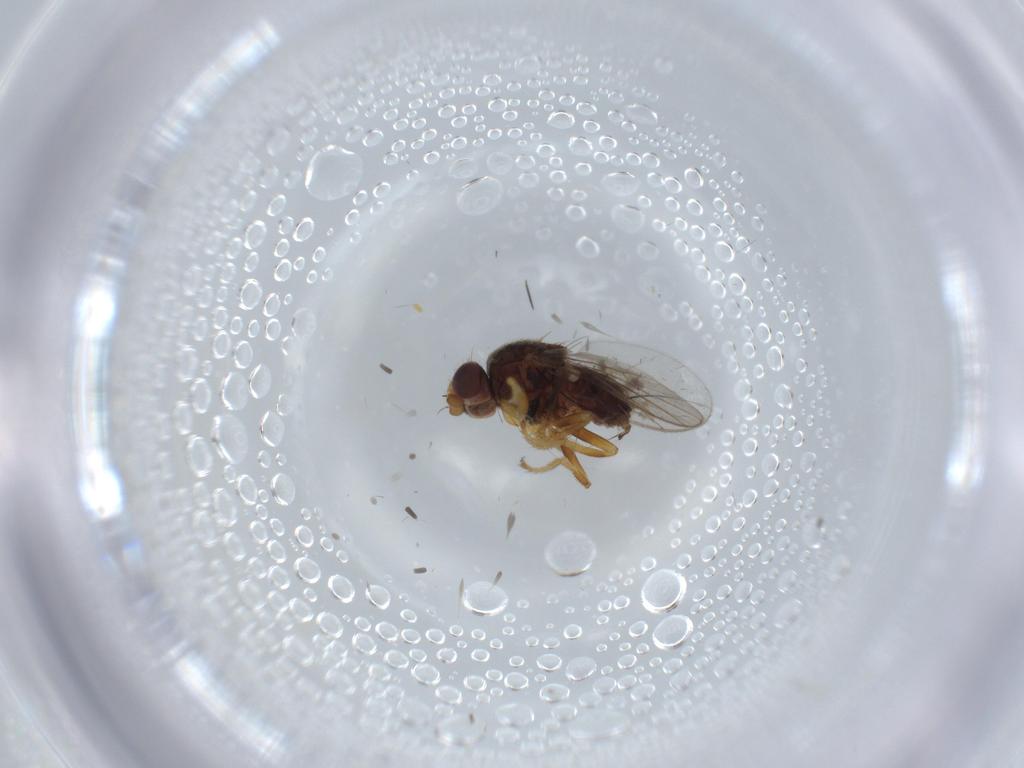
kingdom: Animalia
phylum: Arthropoda
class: Insecta
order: Diptera
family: Chloropidae
